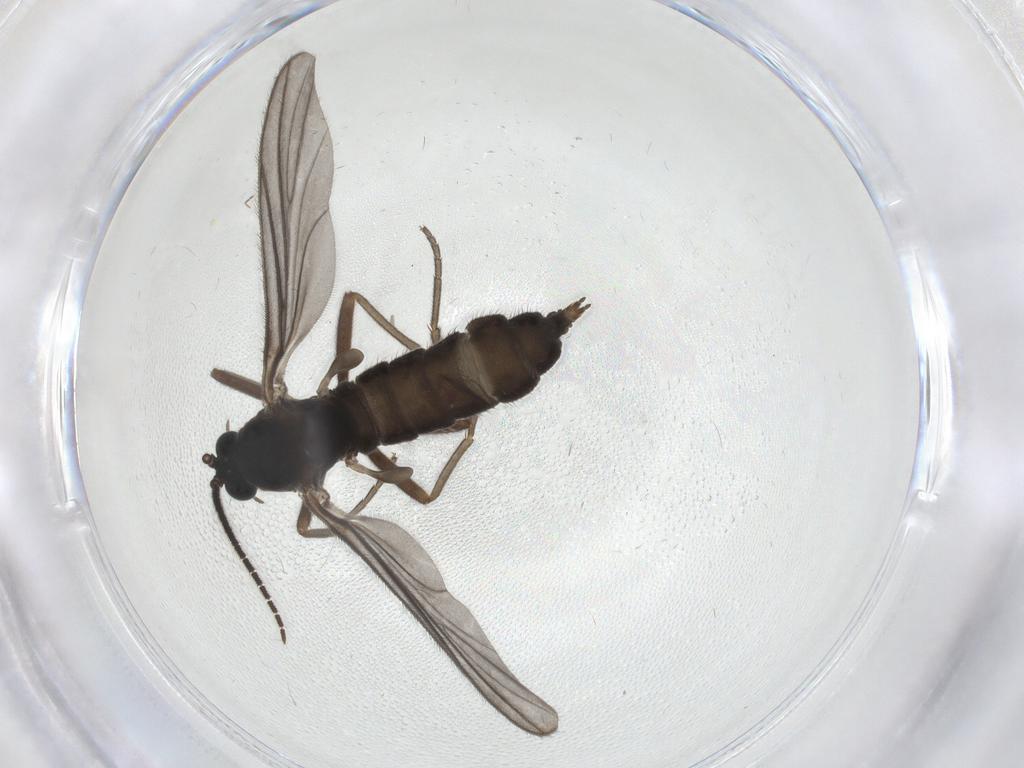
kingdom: Animalia
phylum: Arthropoda
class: Insecta
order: Diptera
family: Sciaridae
